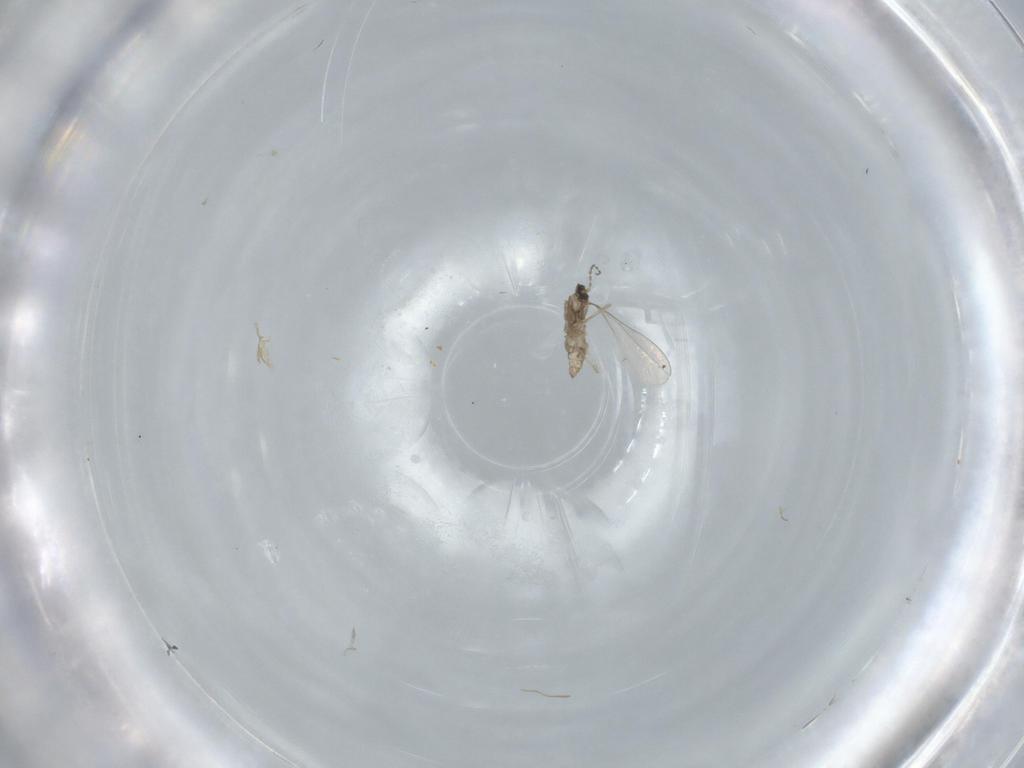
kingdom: Animalia
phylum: Arthropoda
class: Insecta
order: Diptera
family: Cecidomyiidae
